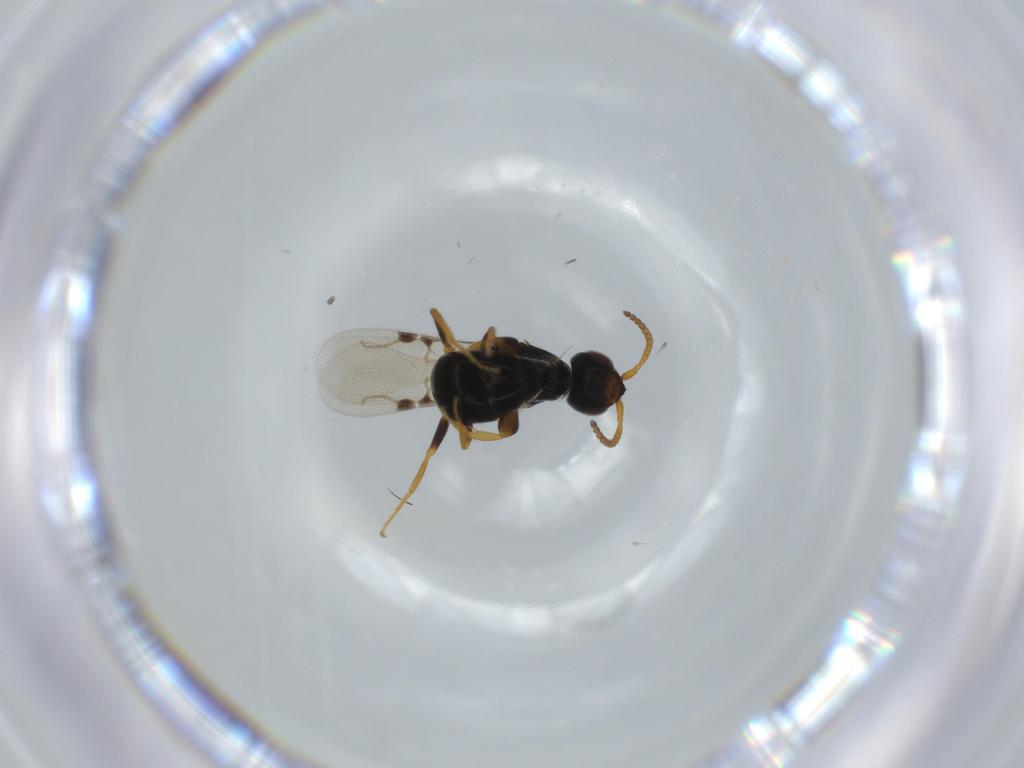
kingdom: Animalia
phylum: Arthropoda
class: Insecta
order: Hymenoptera
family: Bethylidae
